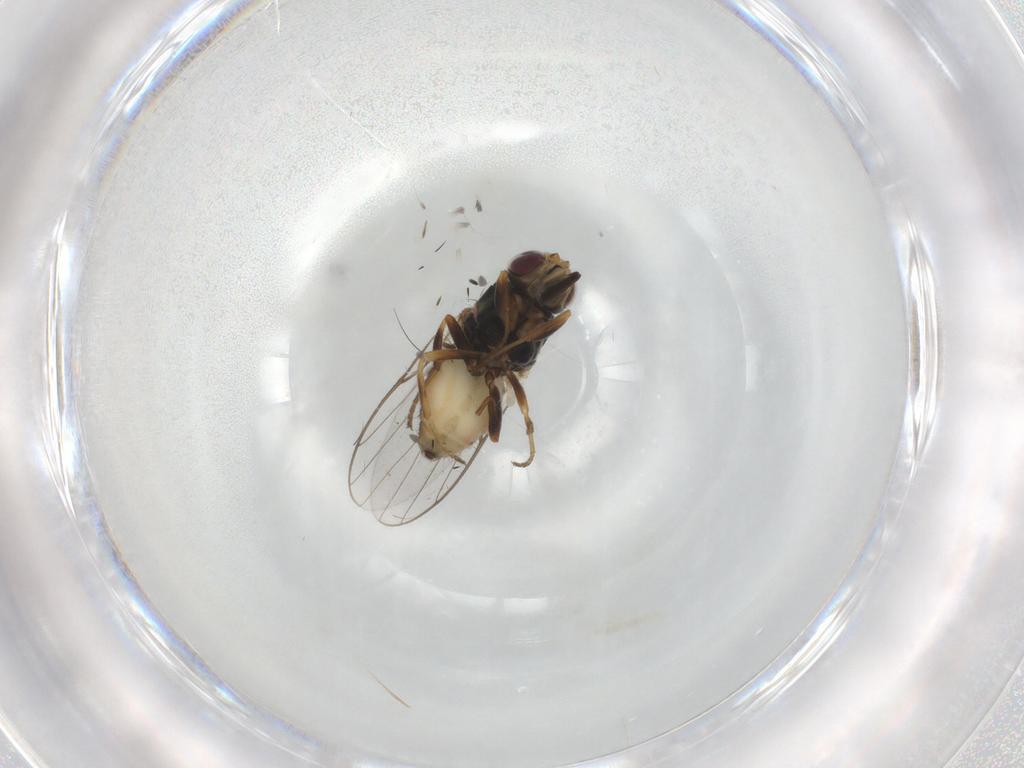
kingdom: Animalia
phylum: Arthropoda
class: Insecta
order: Diptera
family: Chloropidae
